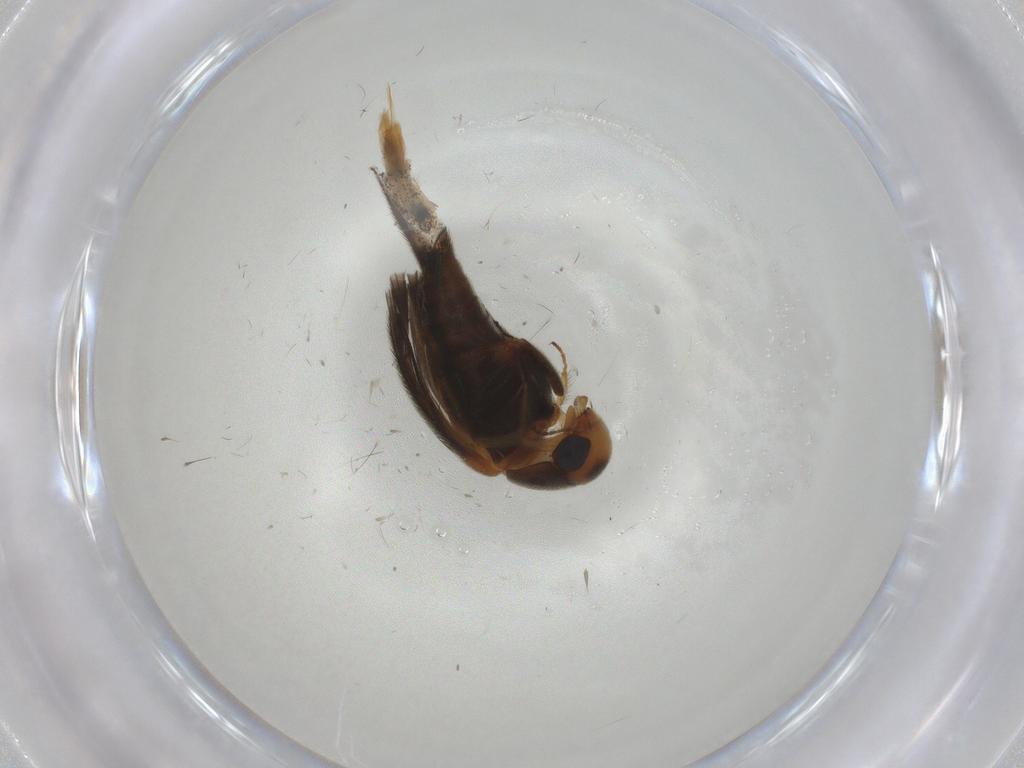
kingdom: Animalia
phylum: Arthropoda
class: Insecta
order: Coleoptera
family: Mordellidae
